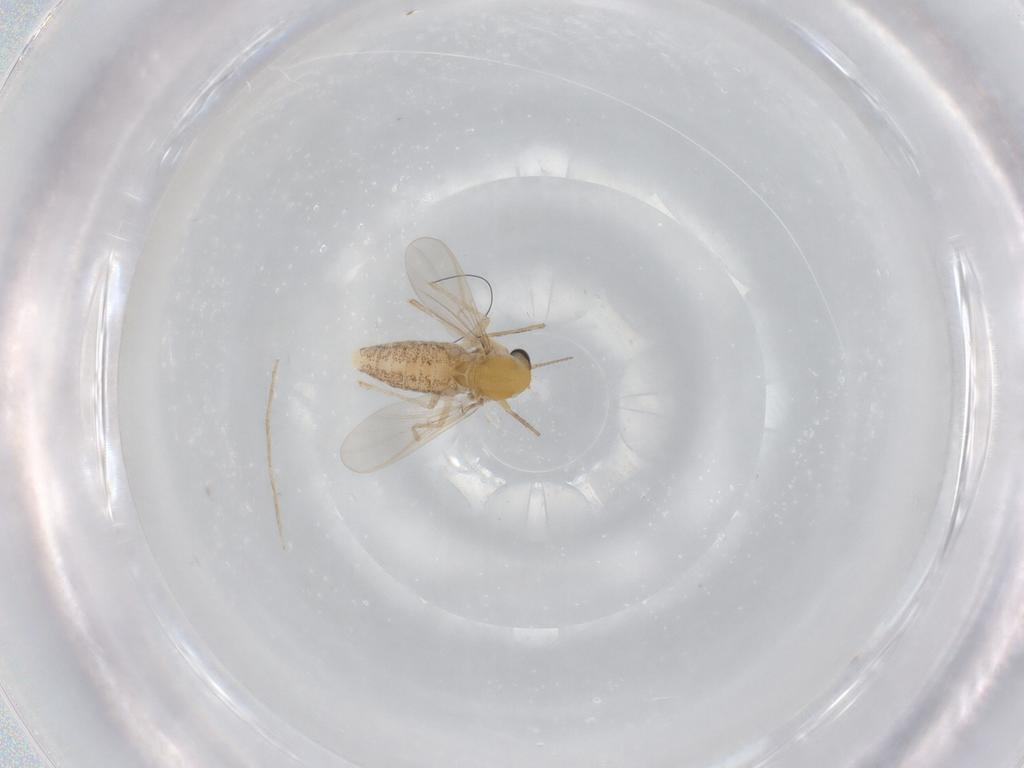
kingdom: Animalia
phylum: Arthropoda
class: Insecta
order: Diptera
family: Chironomidae
